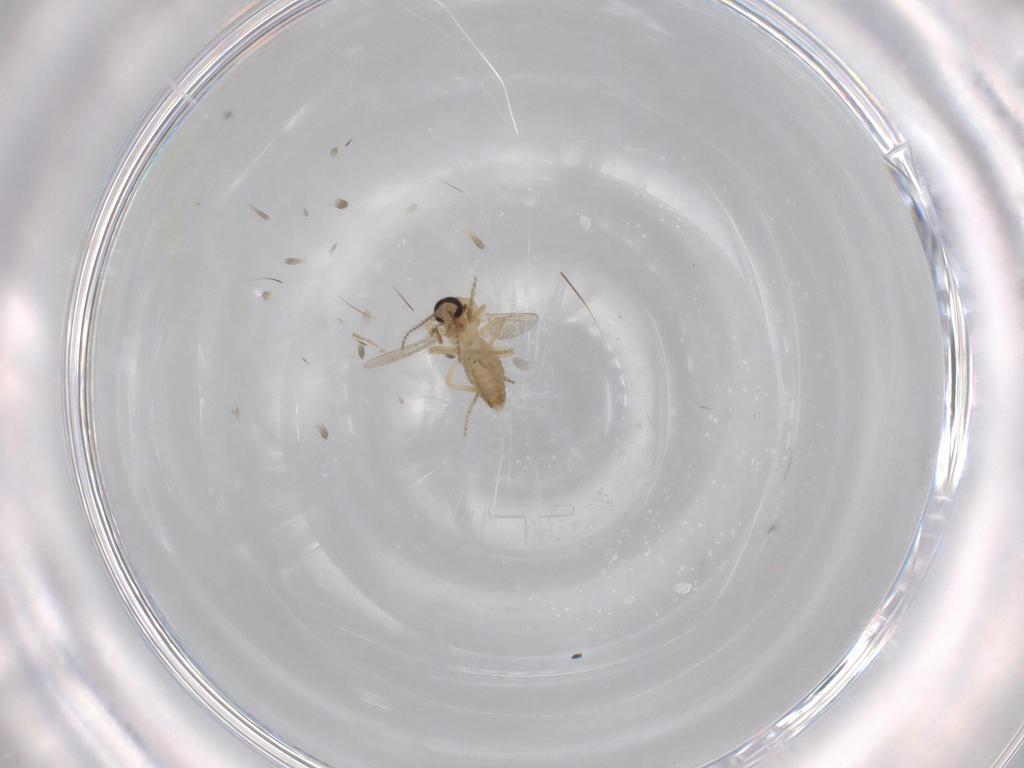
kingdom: Animalia
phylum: Arthropoda
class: Insecta
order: Diptera
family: Ceratopogonidae
